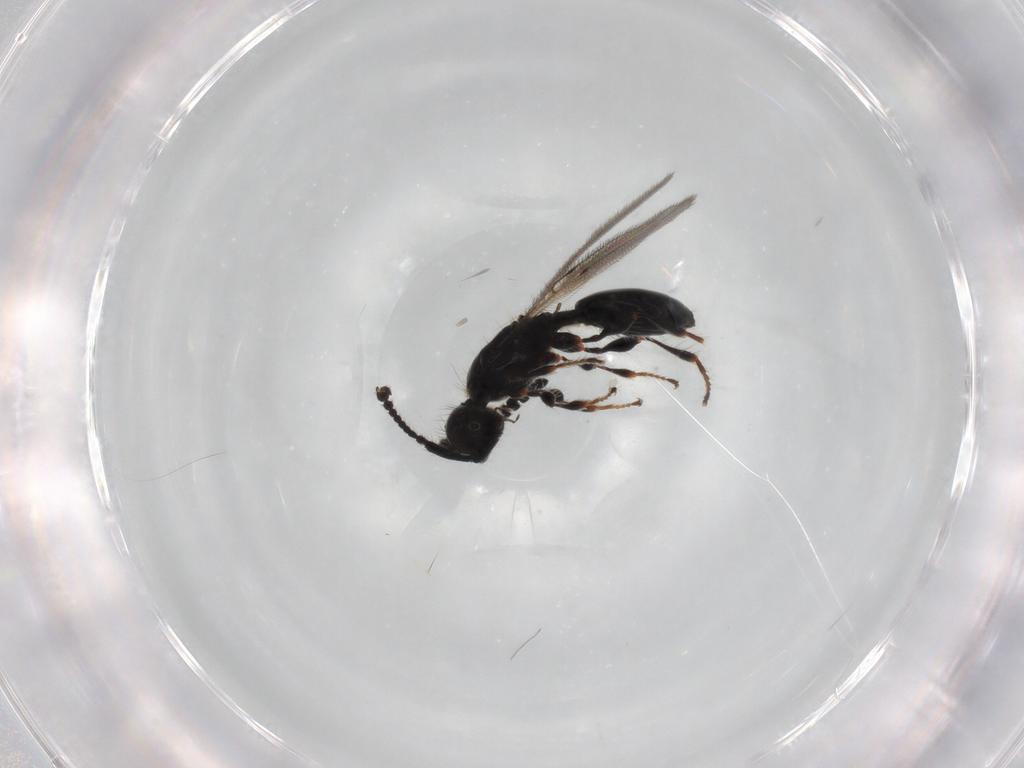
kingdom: Animalia
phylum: Arthropoda
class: Insecta
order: Hymenoptera
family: Diapriidae
